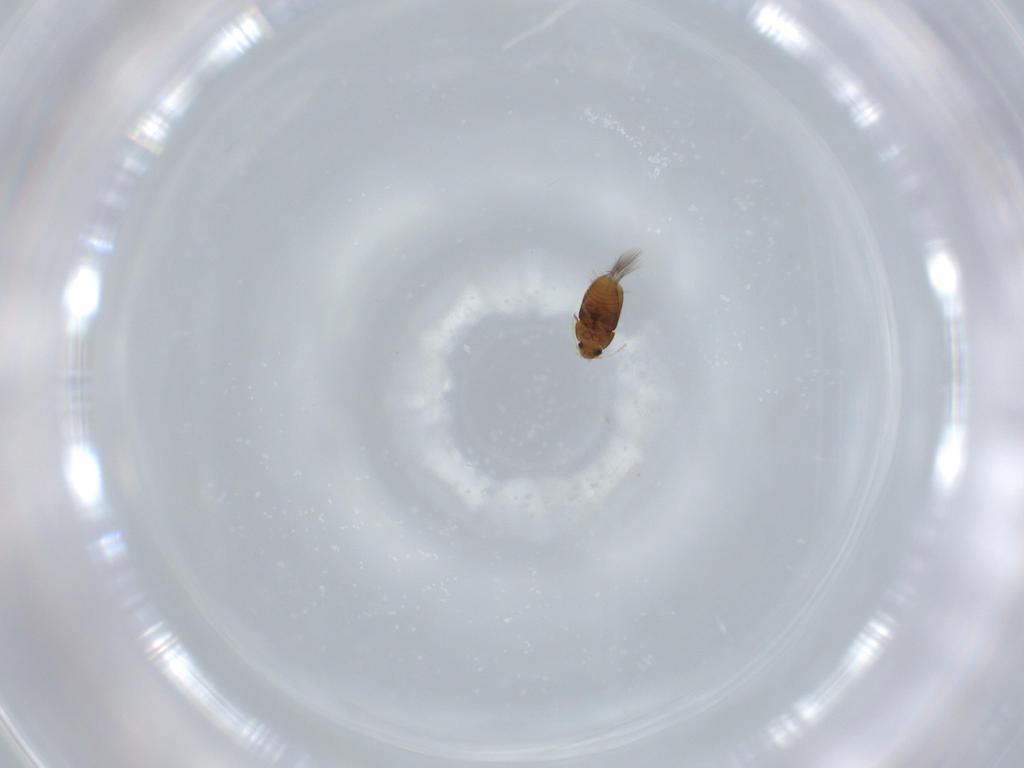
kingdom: Animalia
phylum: Arthropoda
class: Insecta
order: Coleoptera
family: Ptiliidae
